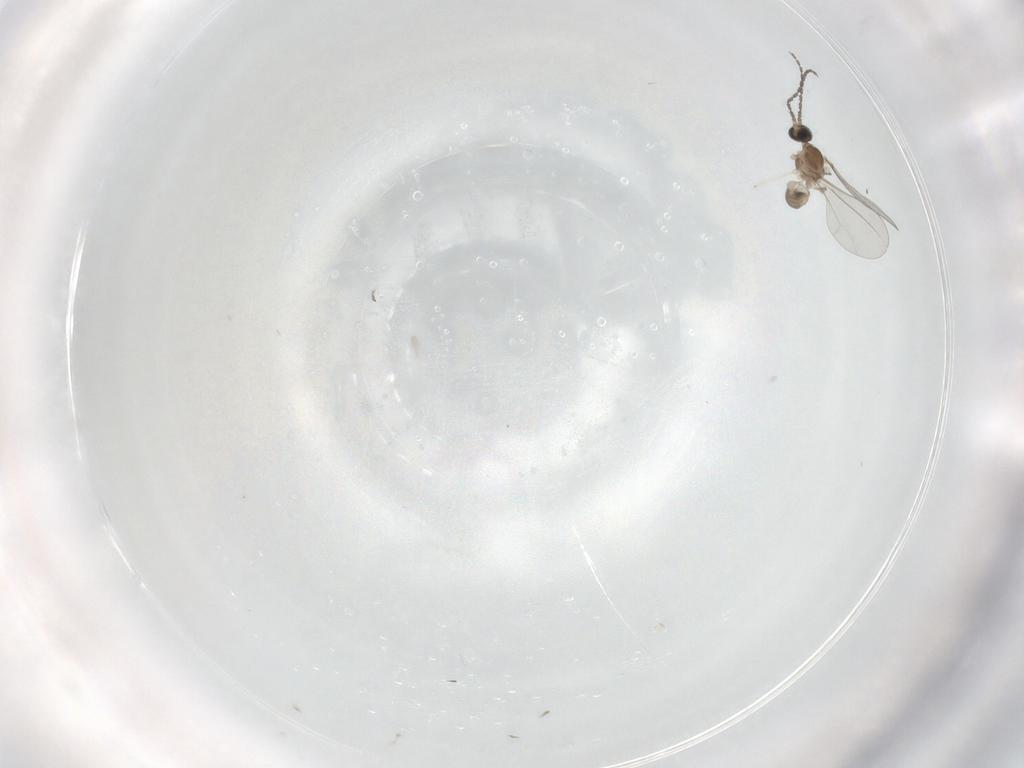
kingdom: Animalia
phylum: Arthropoda
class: Insecta
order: Diptera
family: Cecidomyiidae
